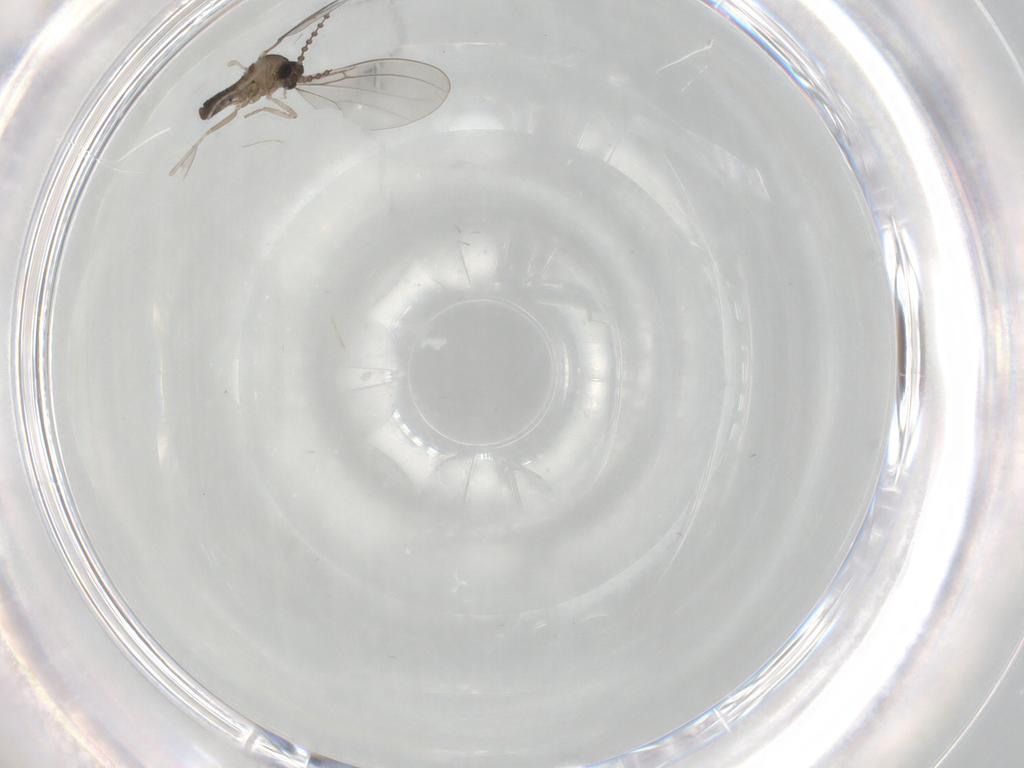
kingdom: Animalia
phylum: Arthropoda
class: Insecta
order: Diptera
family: Cecidomyiidae
